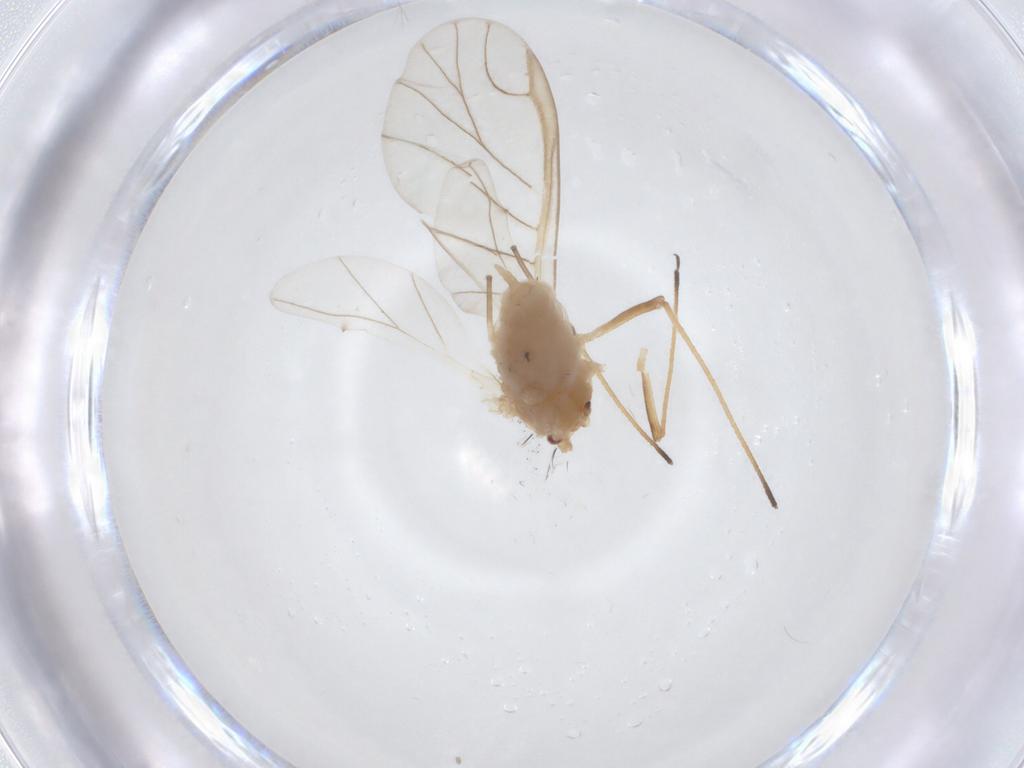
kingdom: Animalia
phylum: Arthropoda
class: Insecta
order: Hemiptera
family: Aphididae
